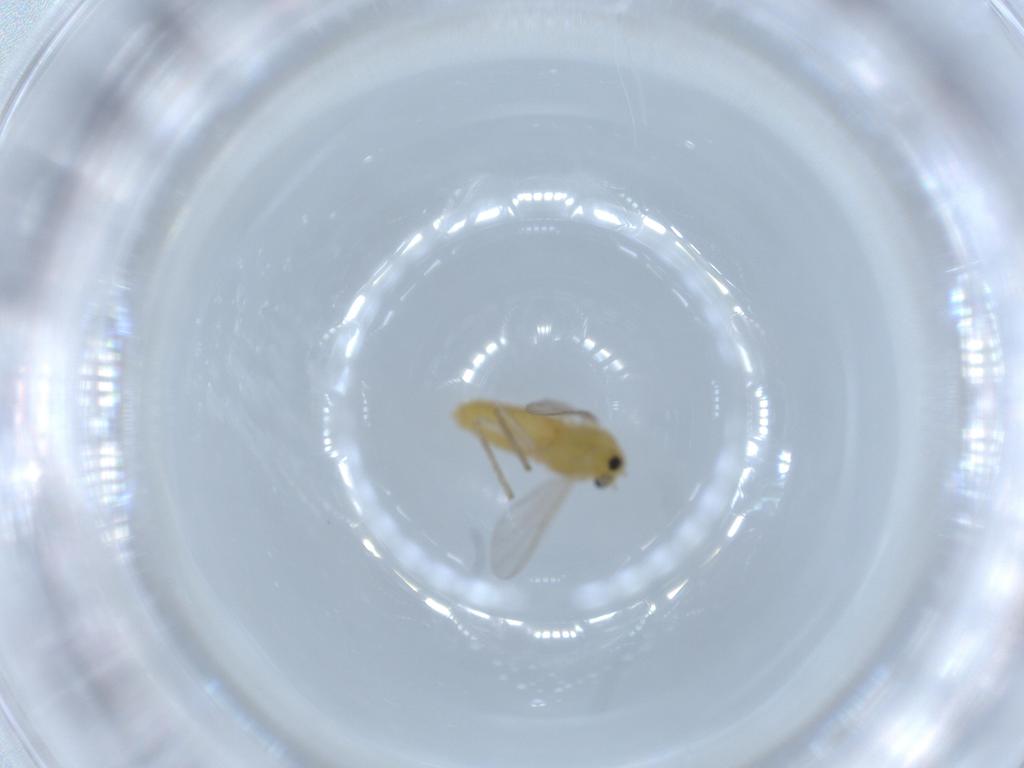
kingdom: Animalia
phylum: Arthropoda
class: Insecta
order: Diptera
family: Chironomidae
